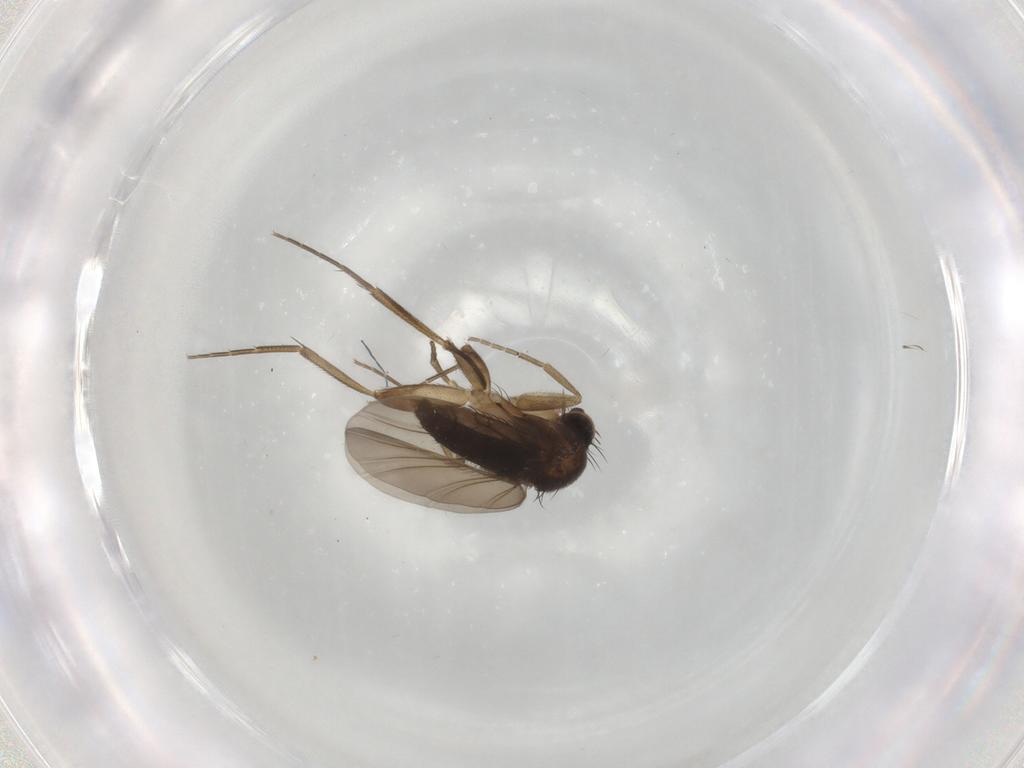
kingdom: Animalia
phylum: Arthropoda
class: Insecta
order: Diptera
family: Phoridae
